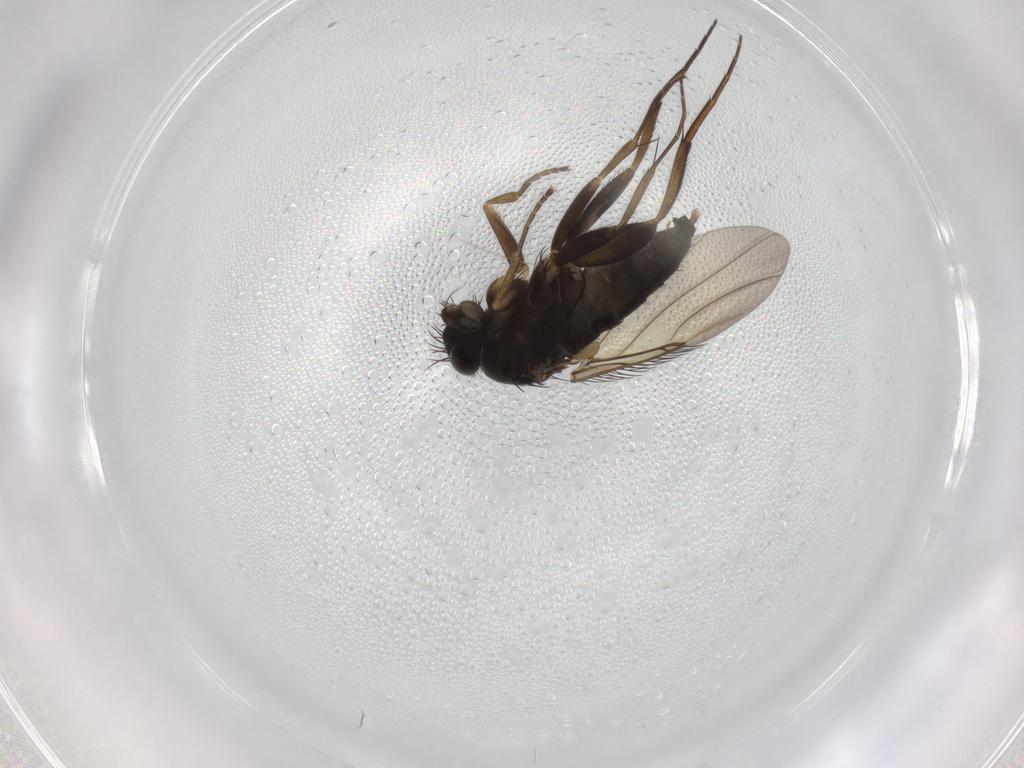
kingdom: Animalia
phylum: Arthropoda
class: Insecta
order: Diptera
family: Phoridae
